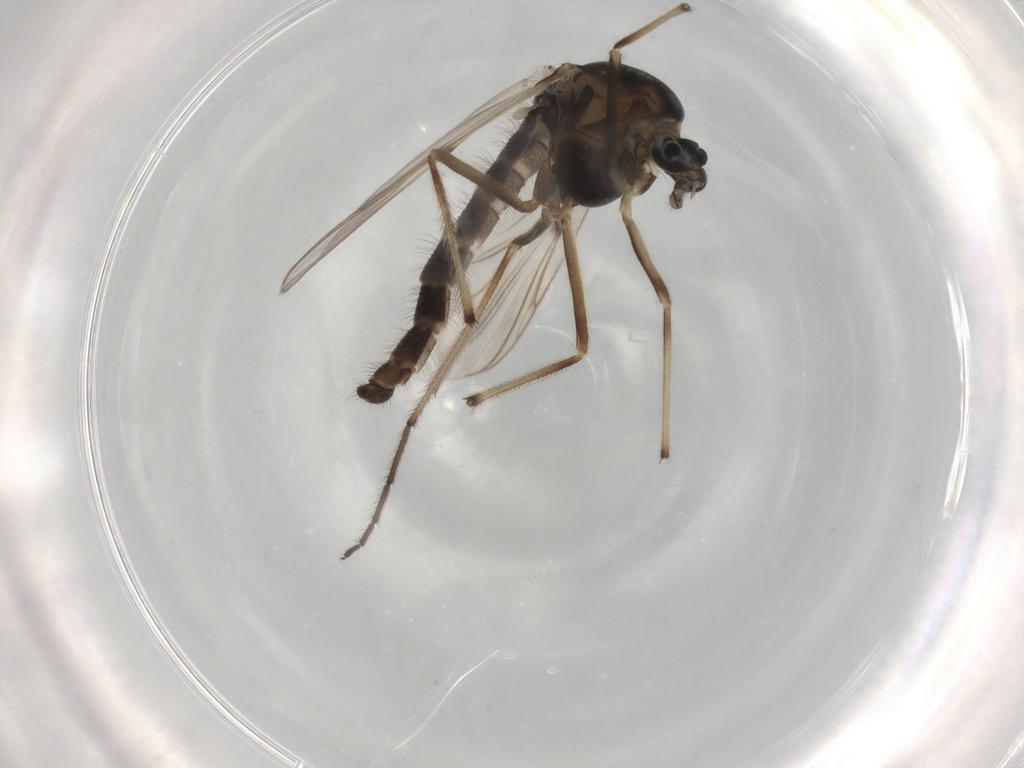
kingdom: Animalia
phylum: Arthropoda
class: Insecta
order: Diptera
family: Chironomidae
